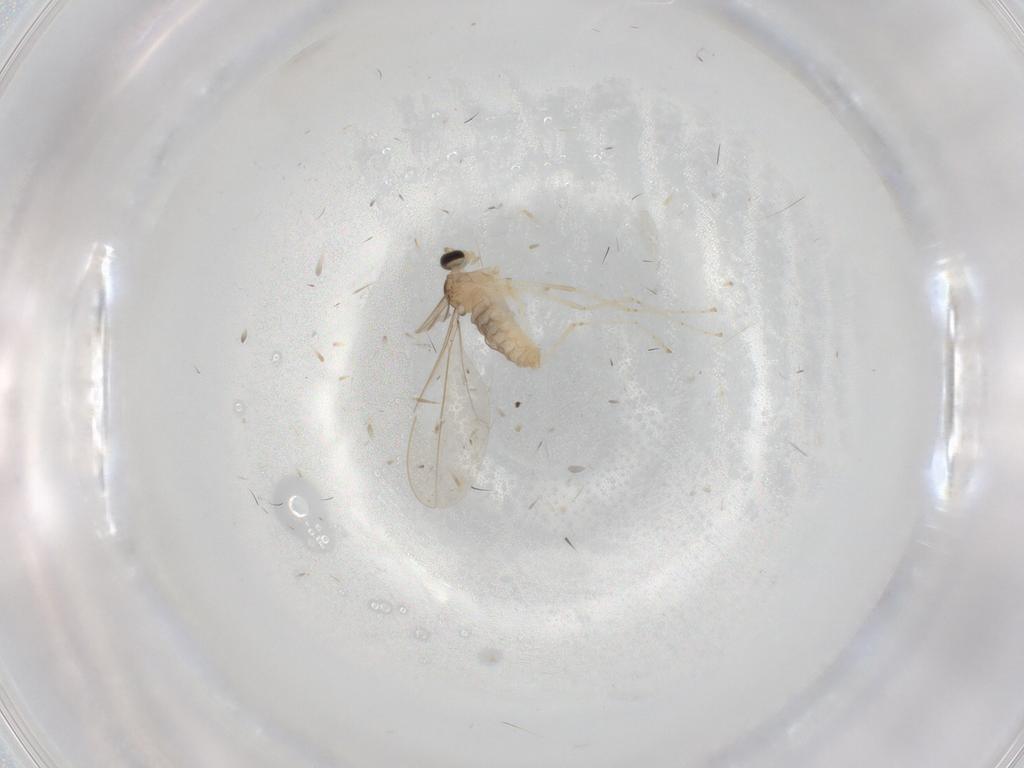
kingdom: Animalia
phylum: Arthropoda
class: Insecta
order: Diptera
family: Cecidomyiidae
